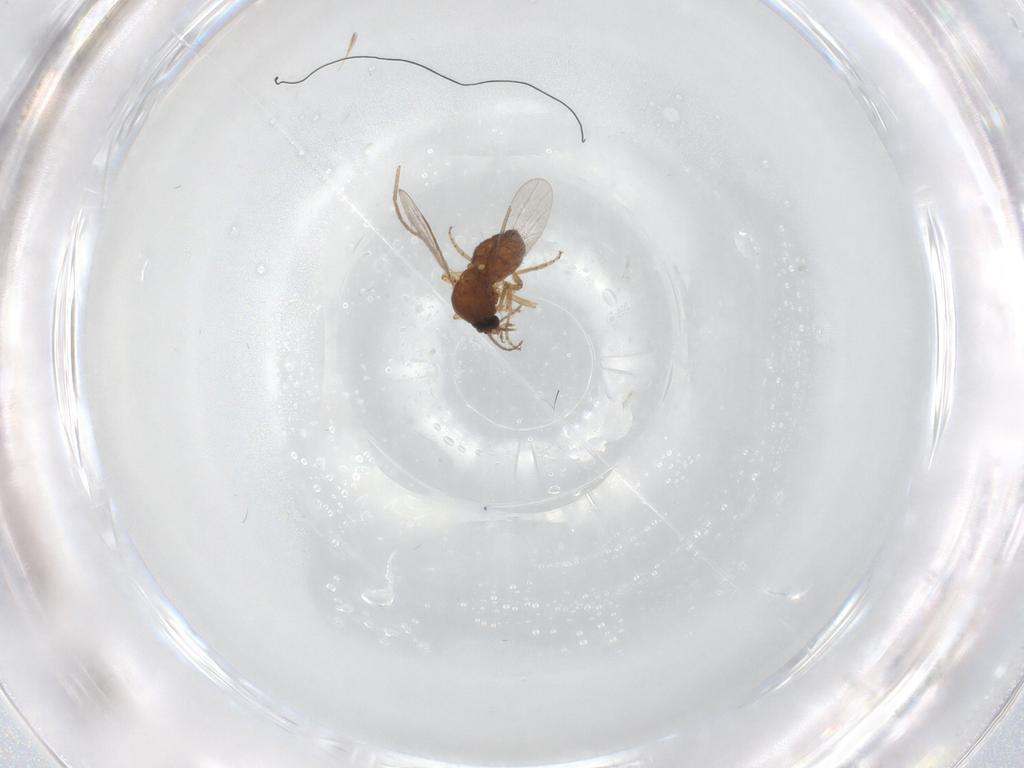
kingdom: Animalia
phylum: Arthropoda
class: Insecta
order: Diptera
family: Ceratopogonidae
